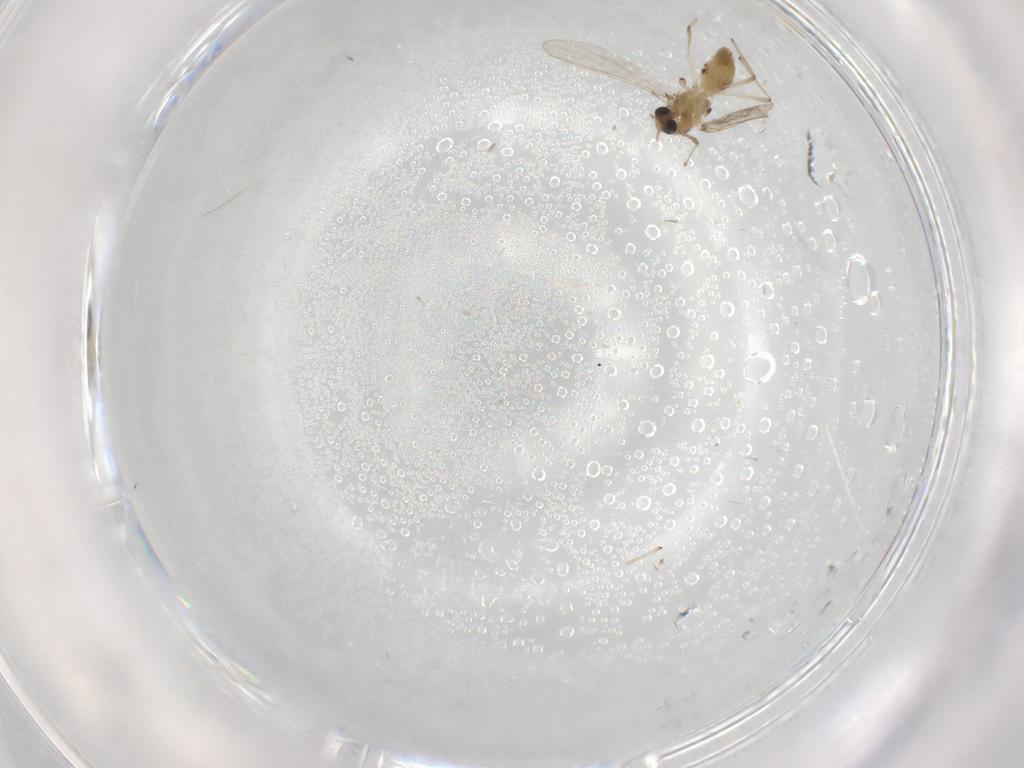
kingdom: Animalia
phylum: Arthropoda
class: Insecta
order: Diptera
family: Chironomidae
